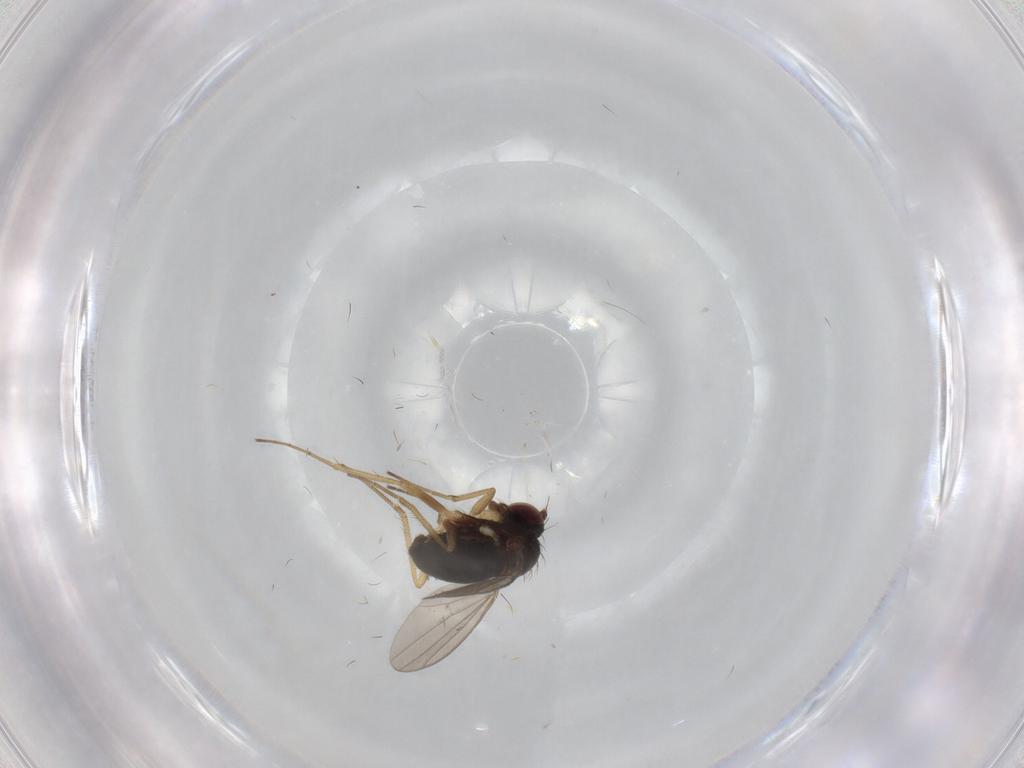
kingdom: Animalia
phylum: Arthropoda
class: Insecta
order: Diptera
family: Dolichopodidae
